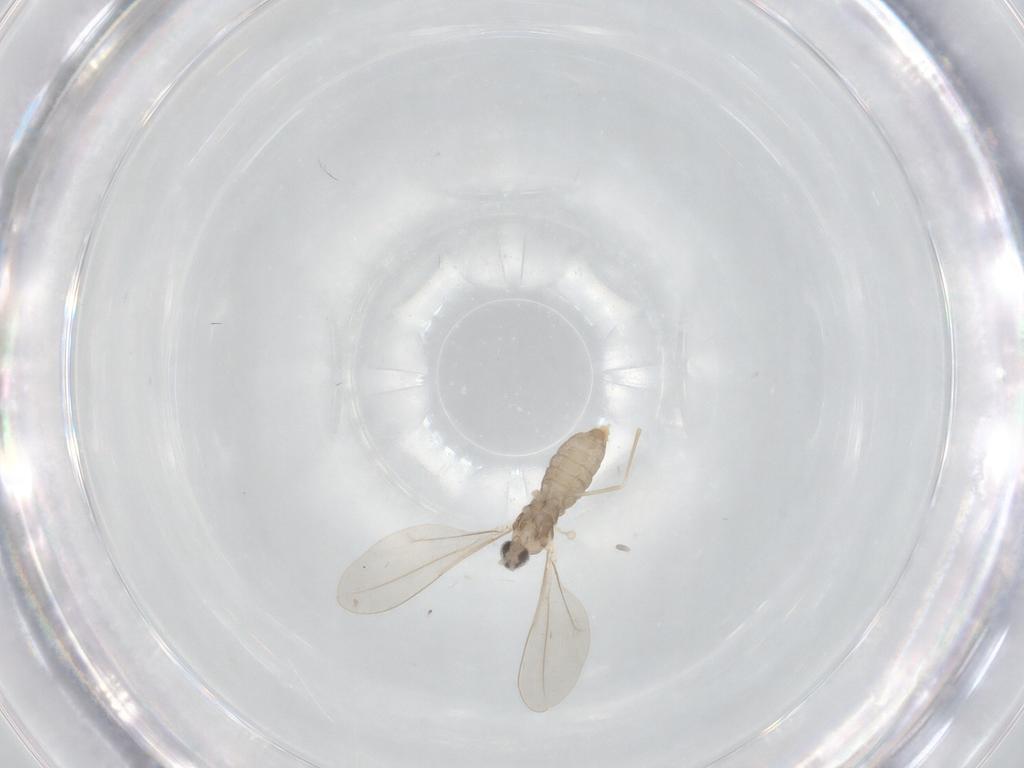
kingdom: Animalia
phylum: Arthropoda
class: Insecta
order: Diptera
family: Cecidomyiidae
